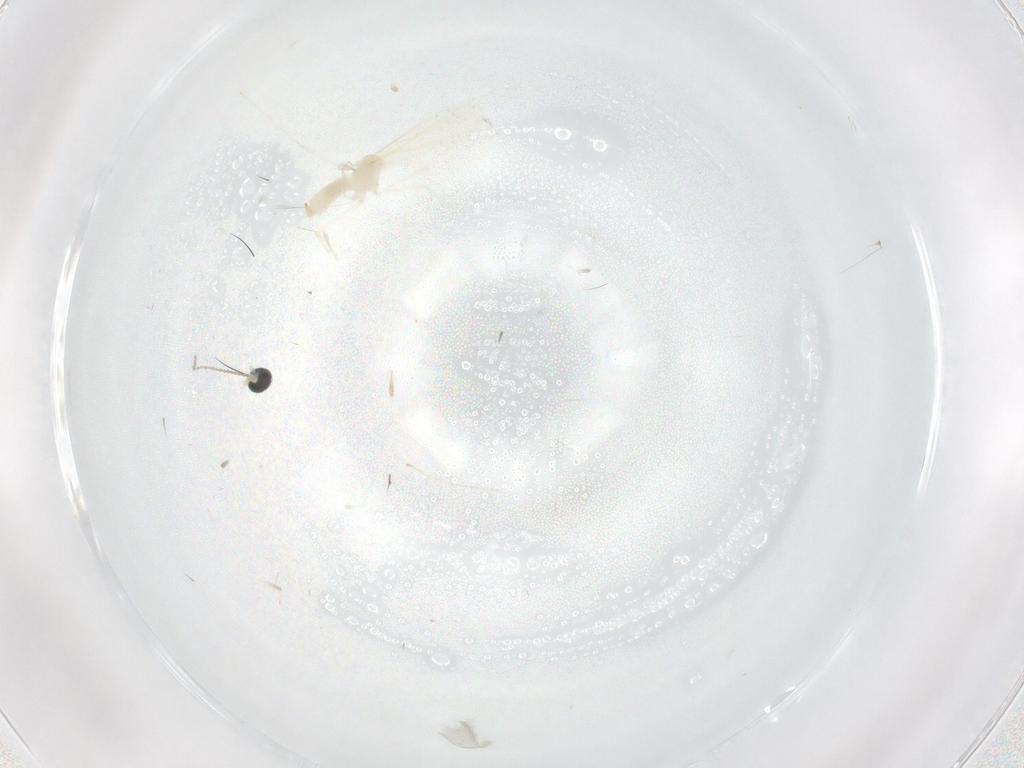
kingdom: Animalia
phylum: Arthropoda
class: Insecta
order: Diptera
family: Cecidomyiidae
